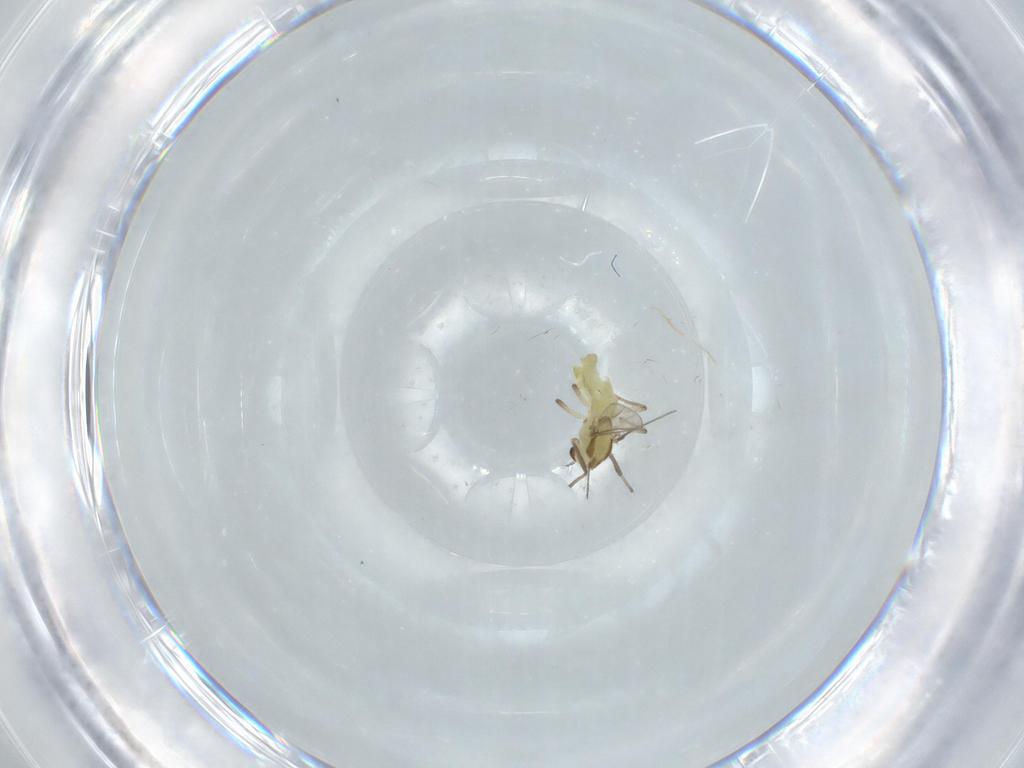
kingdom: Animalia
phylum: Arthropoda
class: Insecta
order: Diptera
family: Chironomidae
